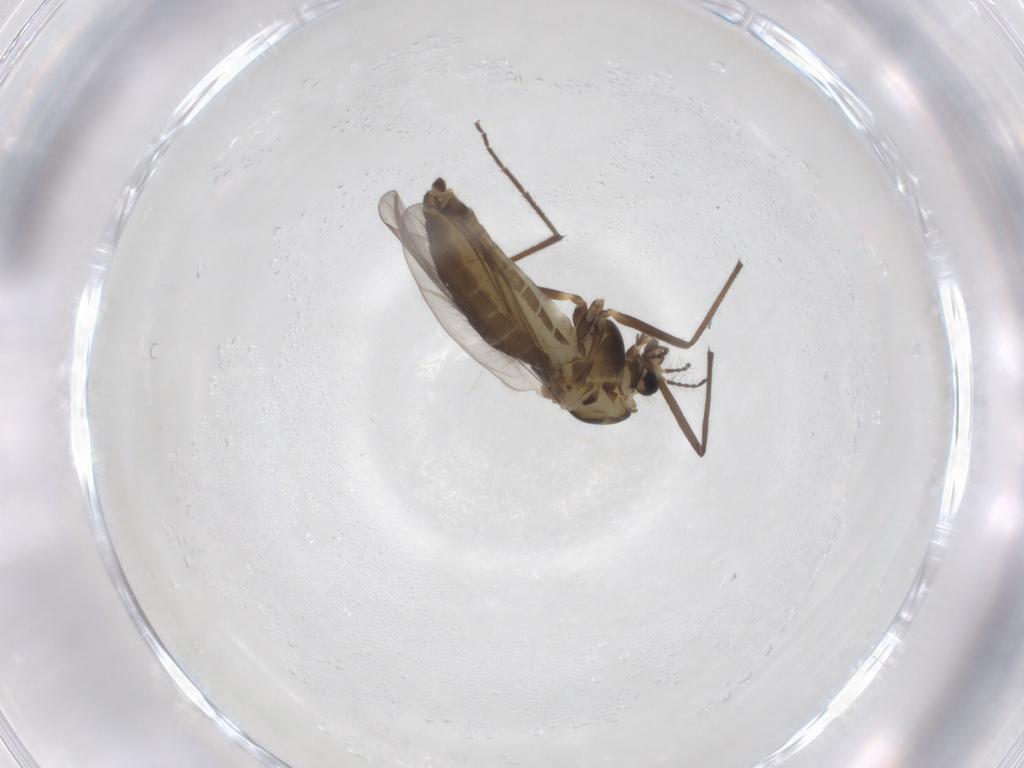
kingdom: Animalia
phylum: Arthropoda
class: Insecta
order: Diptera
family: Chironomidae
